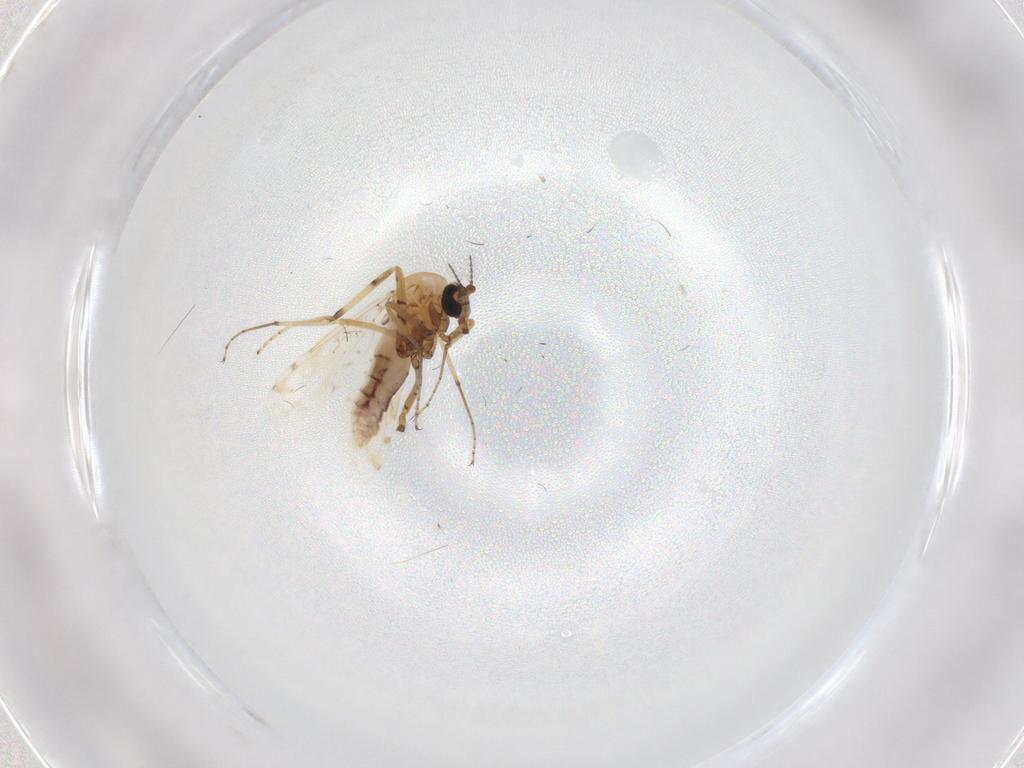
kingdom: Animalia
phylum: Arthropoda
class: Insecta
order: Diptera
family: Ceratopogonidae
